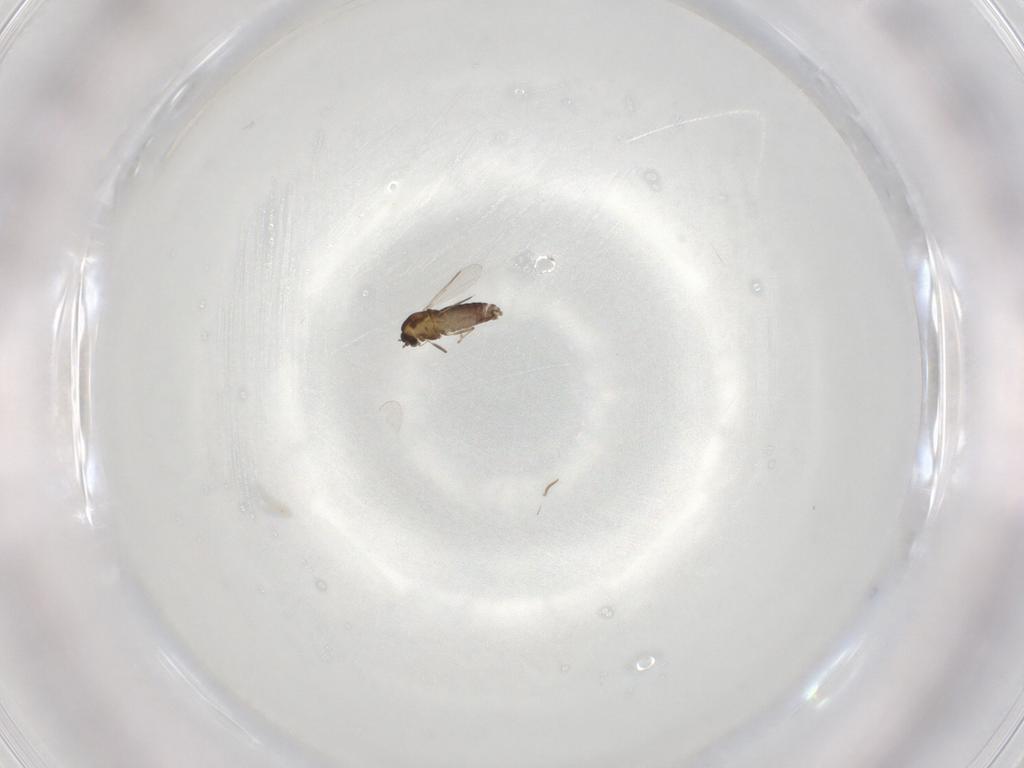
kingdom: Animalia
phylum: Arthropoda
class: Insecta
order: Diptera
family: Chironomidae
